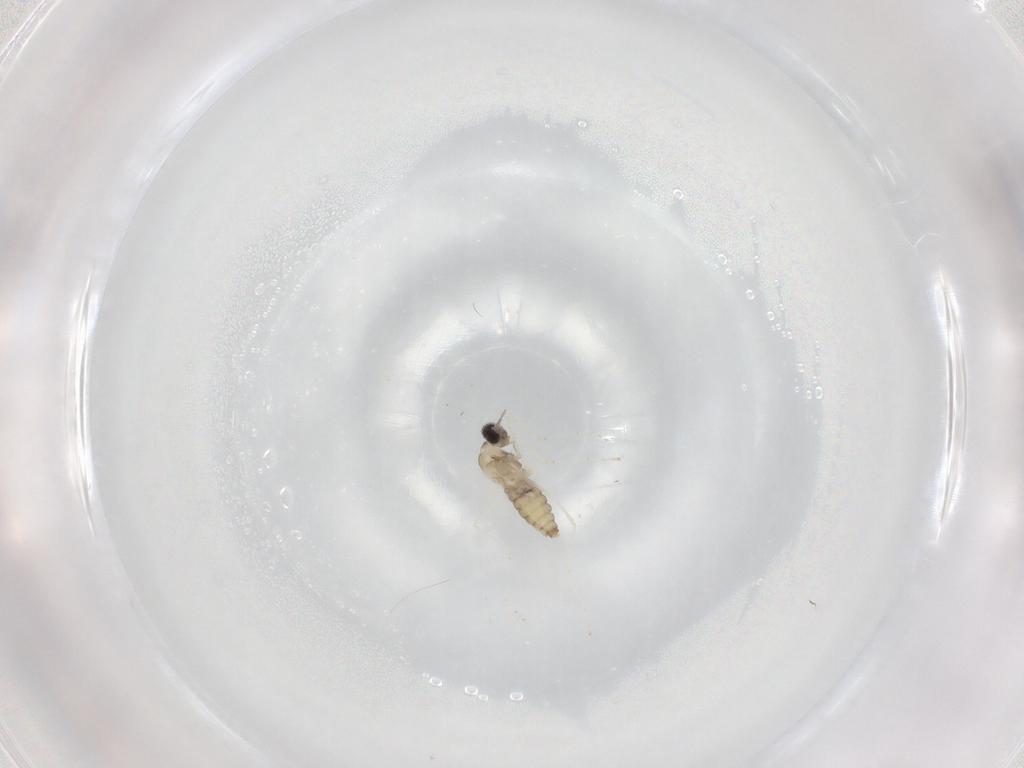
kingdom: Animalia
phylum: Arthropoda
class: Insecta
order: Diptera
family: Cecidomyiidae
